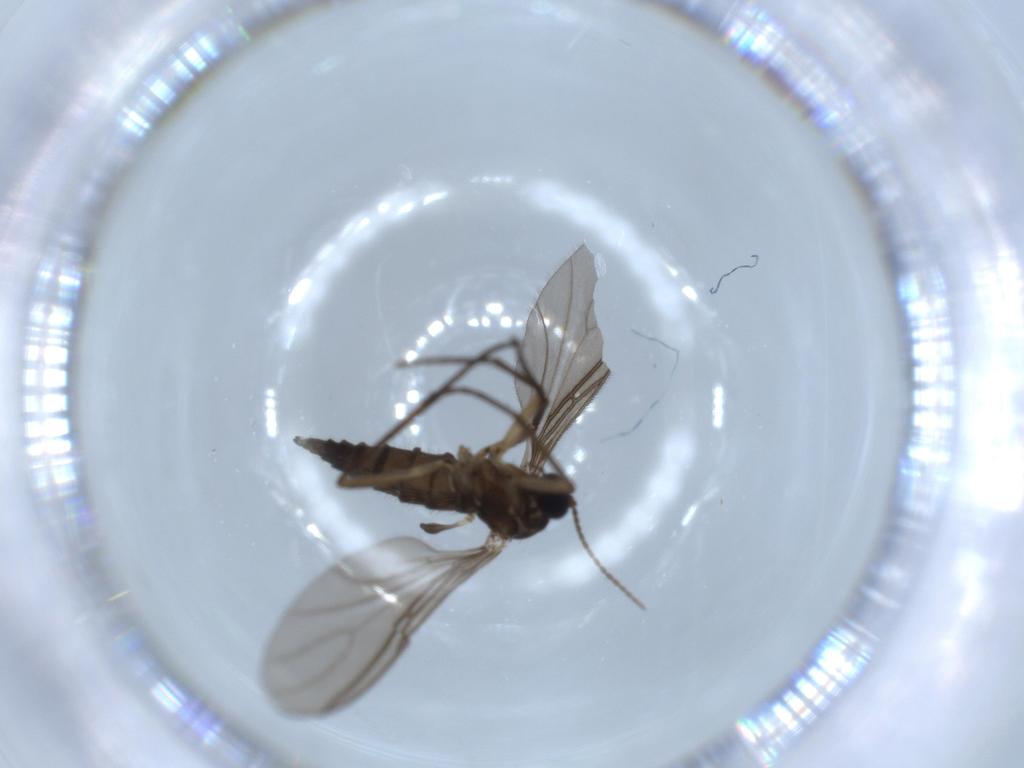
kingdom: Animalia
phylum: Arthropoda
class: Insecta
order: Diptera
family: Sciaridae
